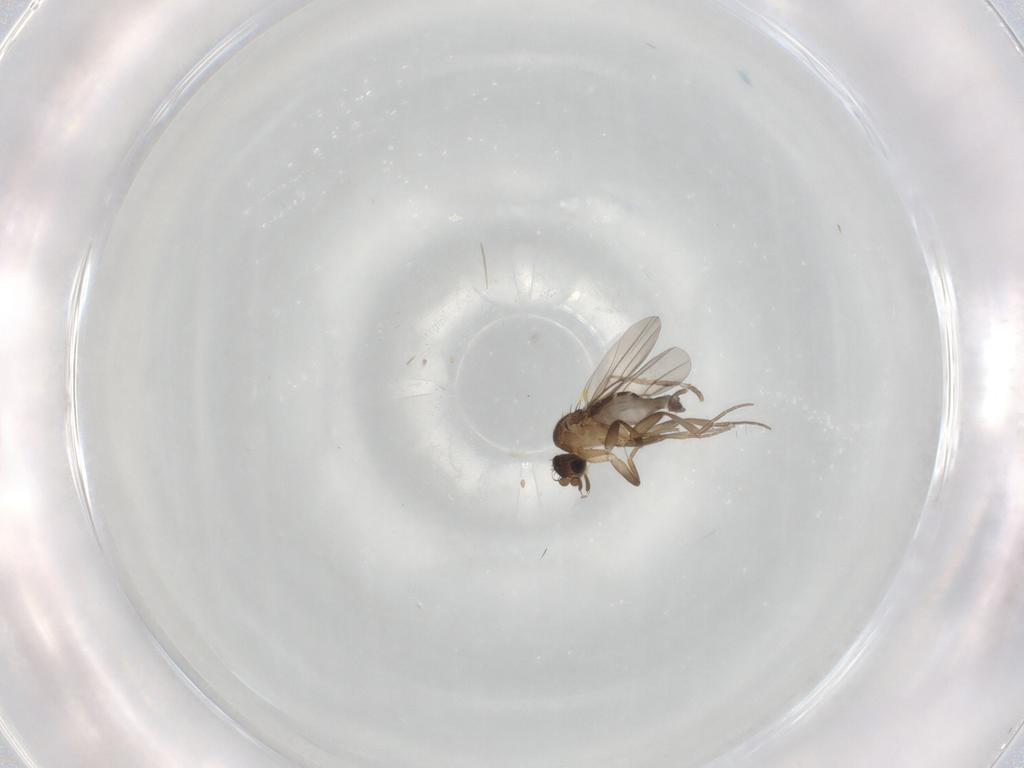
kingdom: Animalia
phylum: Arthropoda
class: Insecta
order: Diptera
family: Phoridae
